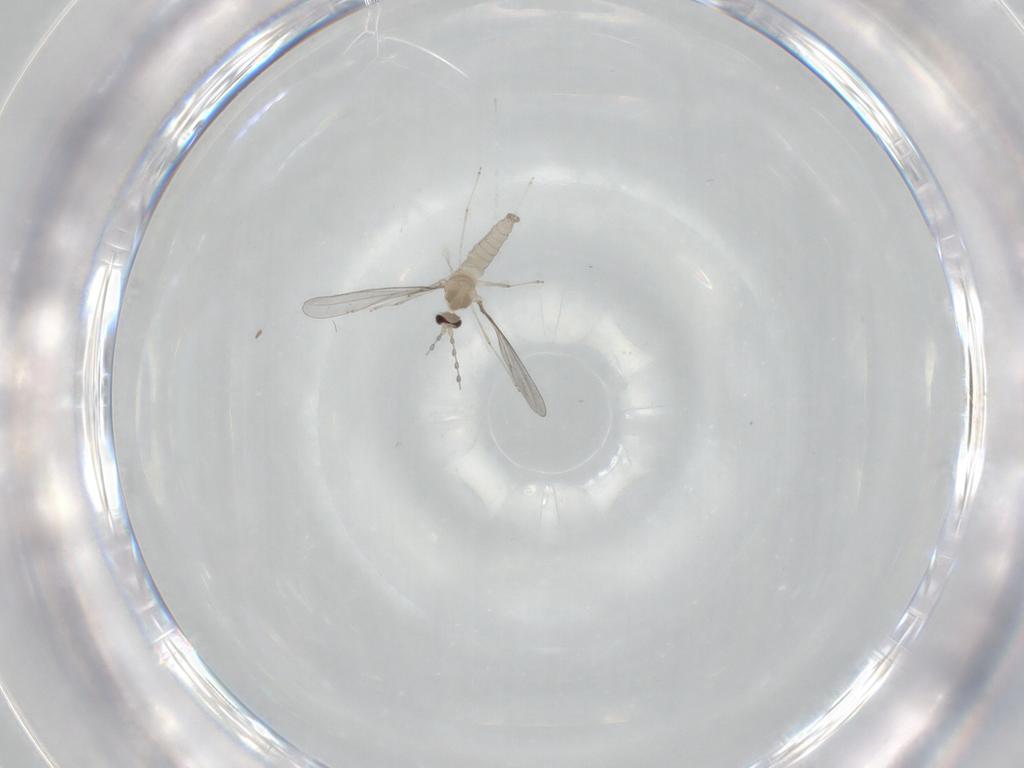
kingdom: Animalia
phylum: Arthropoda
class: Insecta
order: Diptera
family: Cecidomyiidae
